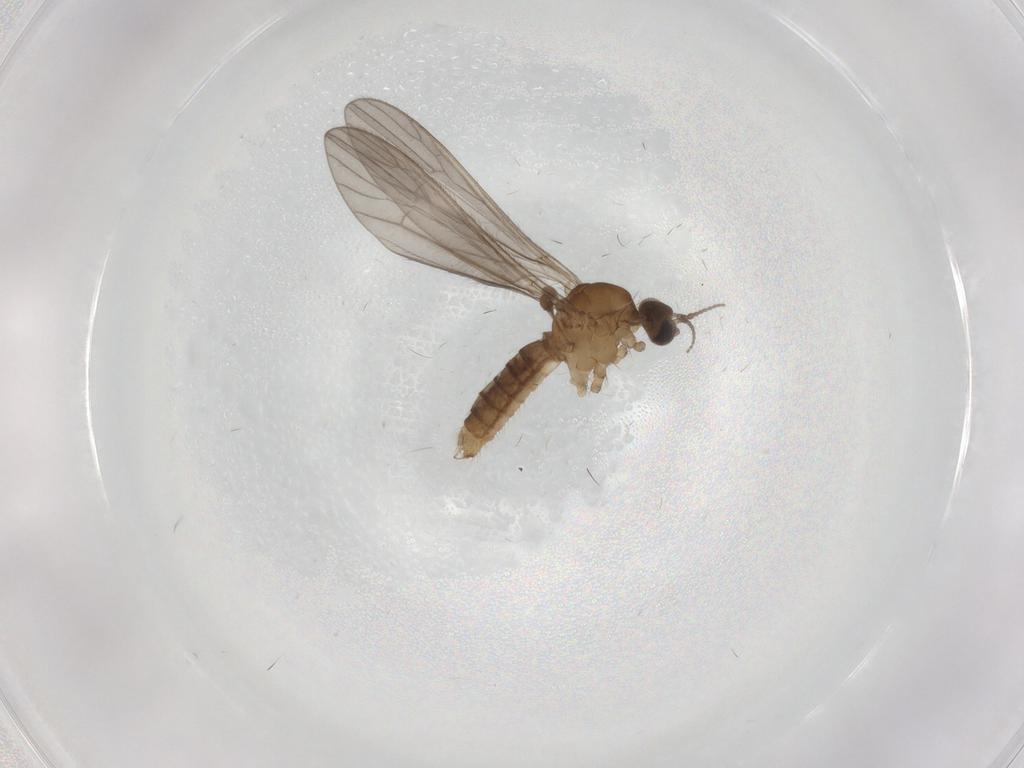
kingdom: Animalia
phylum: Arthropoda
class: Insecta
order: Diptera
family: Limoniidae
